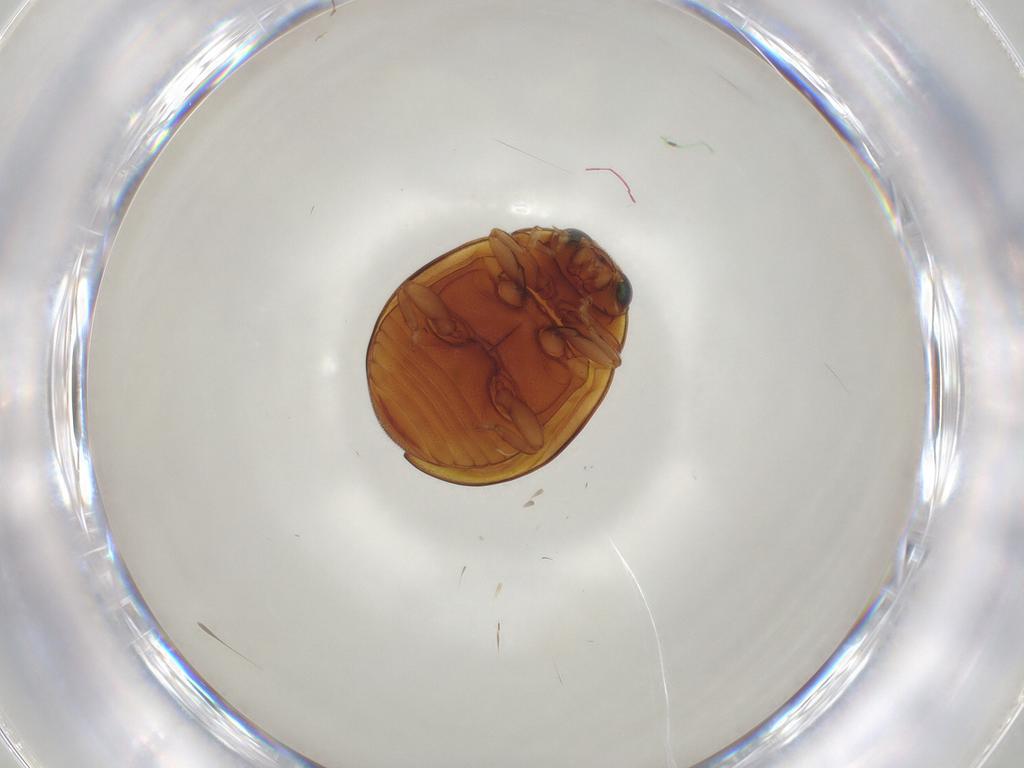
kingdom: Animalia
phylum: Arthropoda
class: Insecta
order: Coleoptera
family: Coccinellidae
